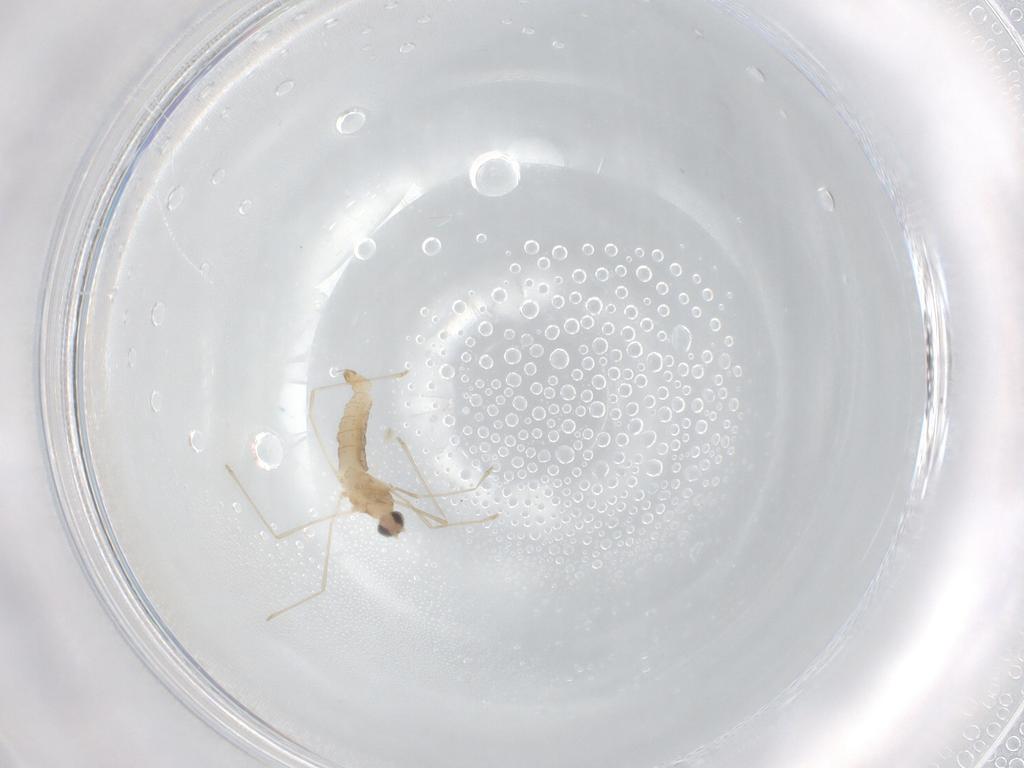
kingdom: Animalia
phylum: Arthropoda
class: Insecta
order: Diptera
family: Cecidomyiidae
